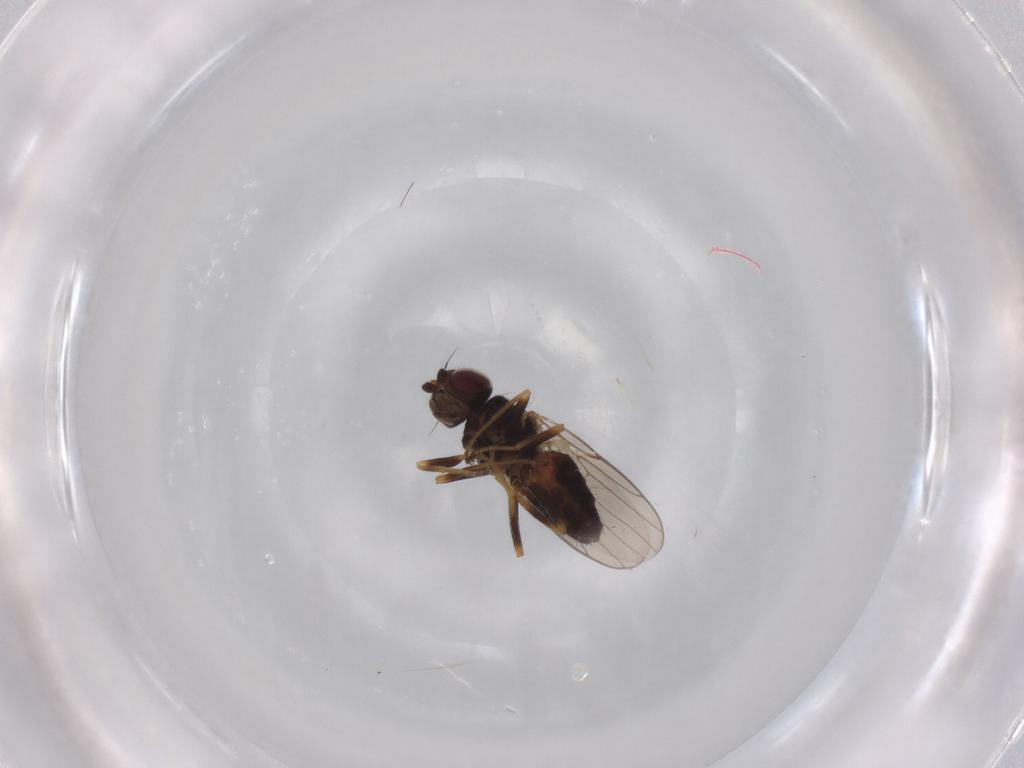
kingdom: Animalia
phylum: Arthropoda
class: Insecta
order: Diptera
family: Chloropidae
